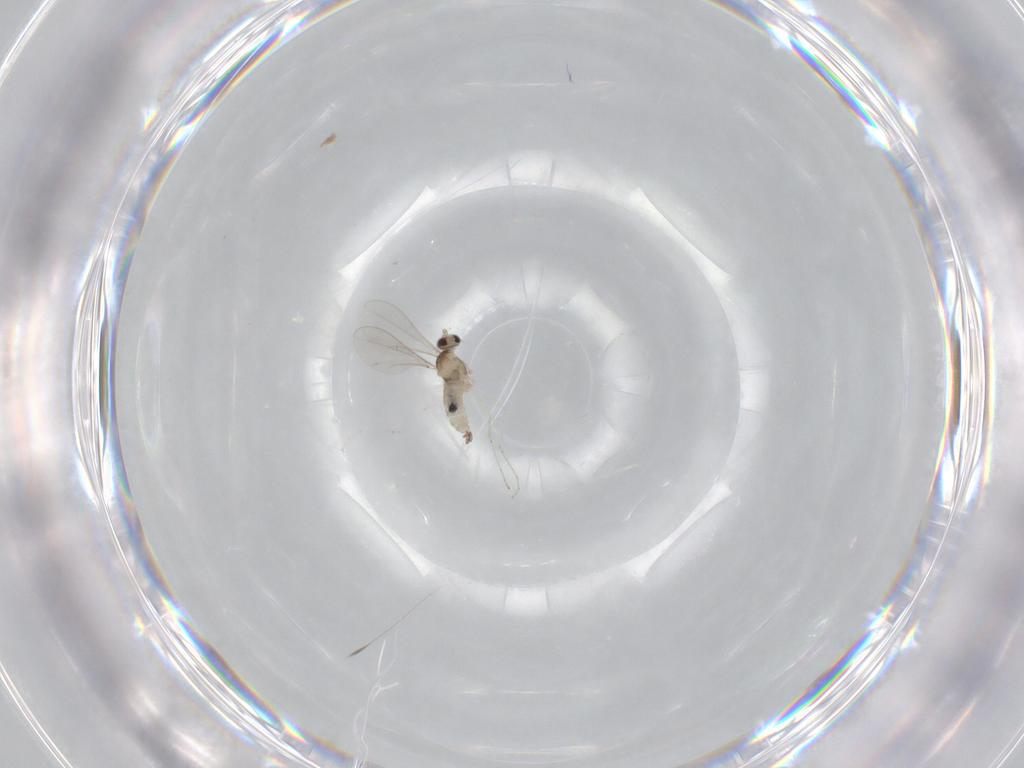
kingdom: Animalia
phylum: Arthropoda
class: Insecta
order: Diptera
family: Cecidomyiidae
